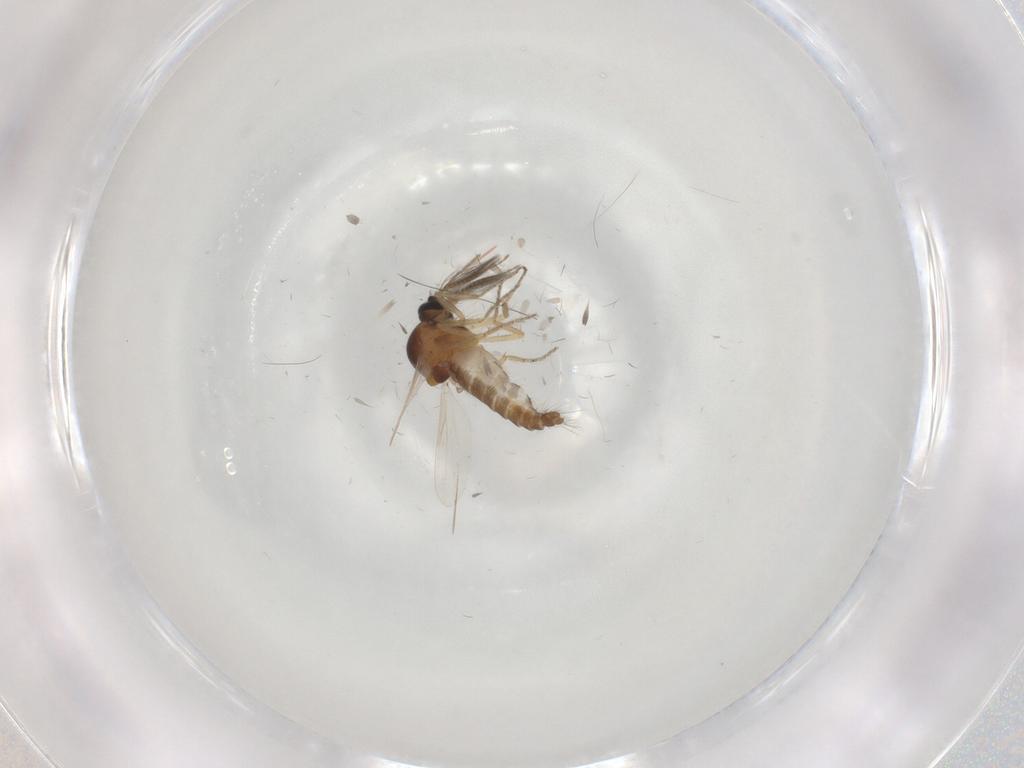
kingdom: Animalia
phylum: Arthropoda
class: Insecta
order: Diptera
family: Ceratopogonidae
